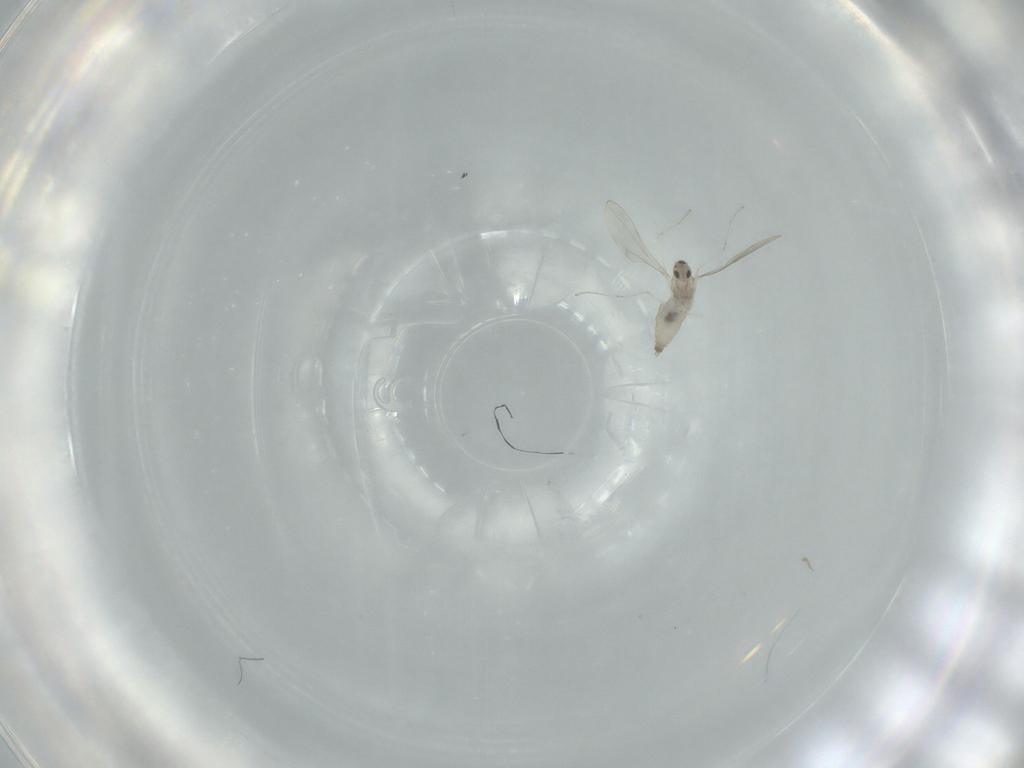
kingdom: Animalia
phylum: Arthropoda
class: Insecta
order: Diptera
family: Cecidomyiidae
